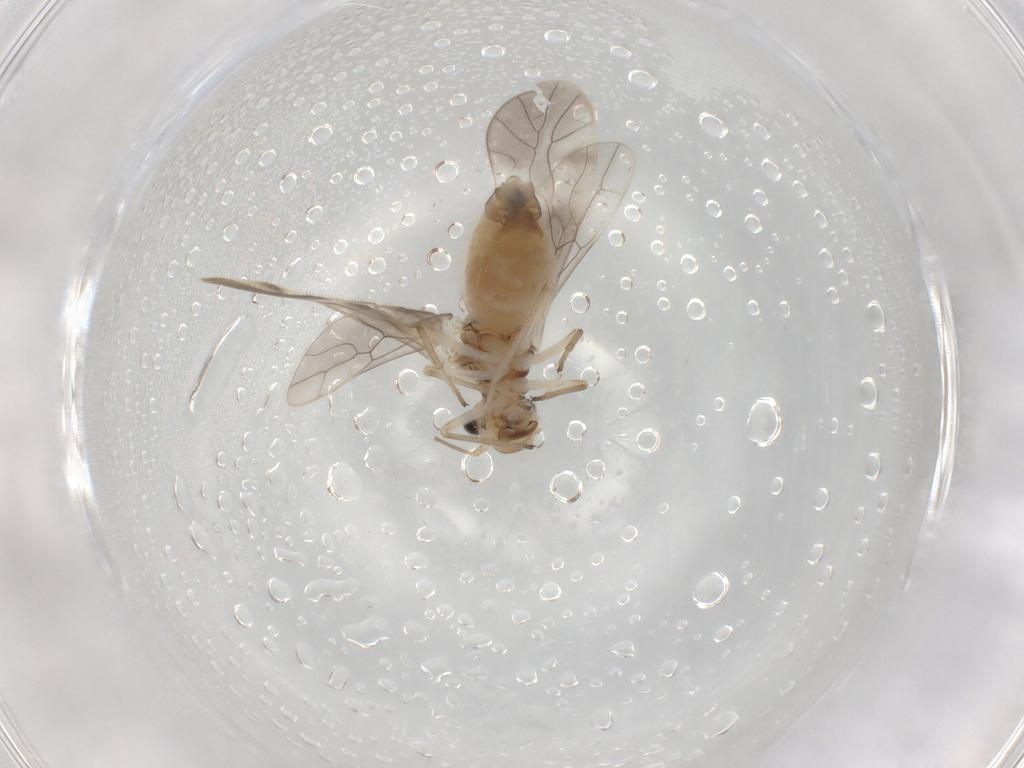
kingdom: Animalia
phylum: Arthropoda
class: Insecta
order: Psocodea
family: Caeciliusidae
